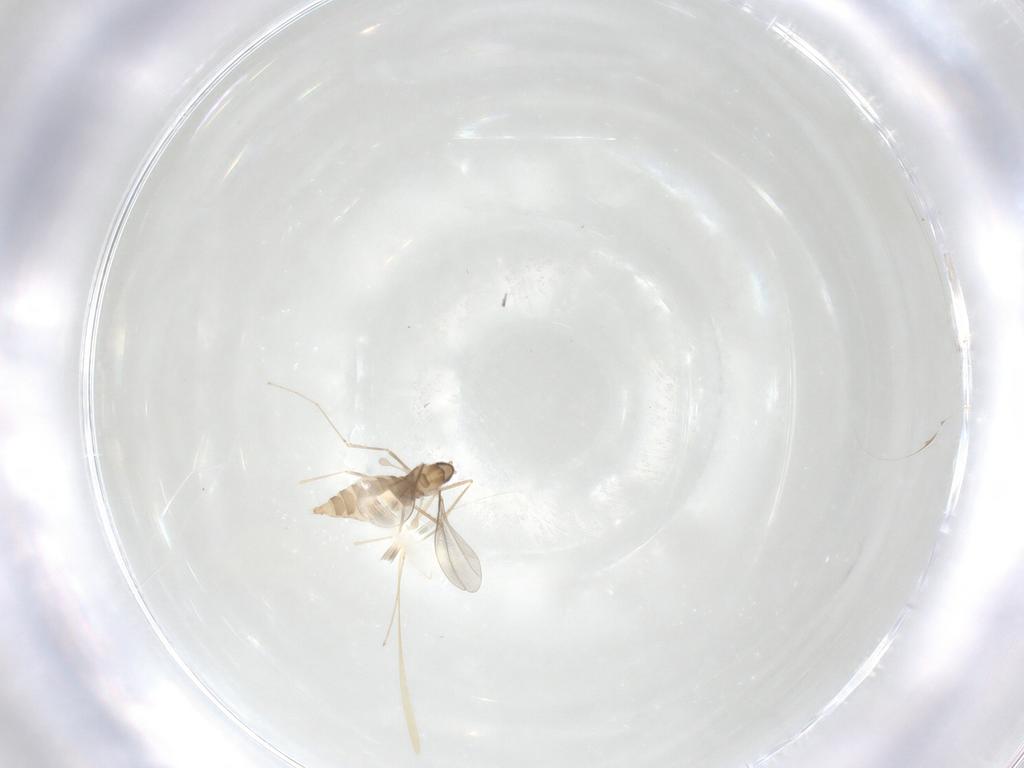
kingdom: Animalia
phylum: Arthropoda
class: Insecta
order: Diptera
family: Cecidomyiidae
